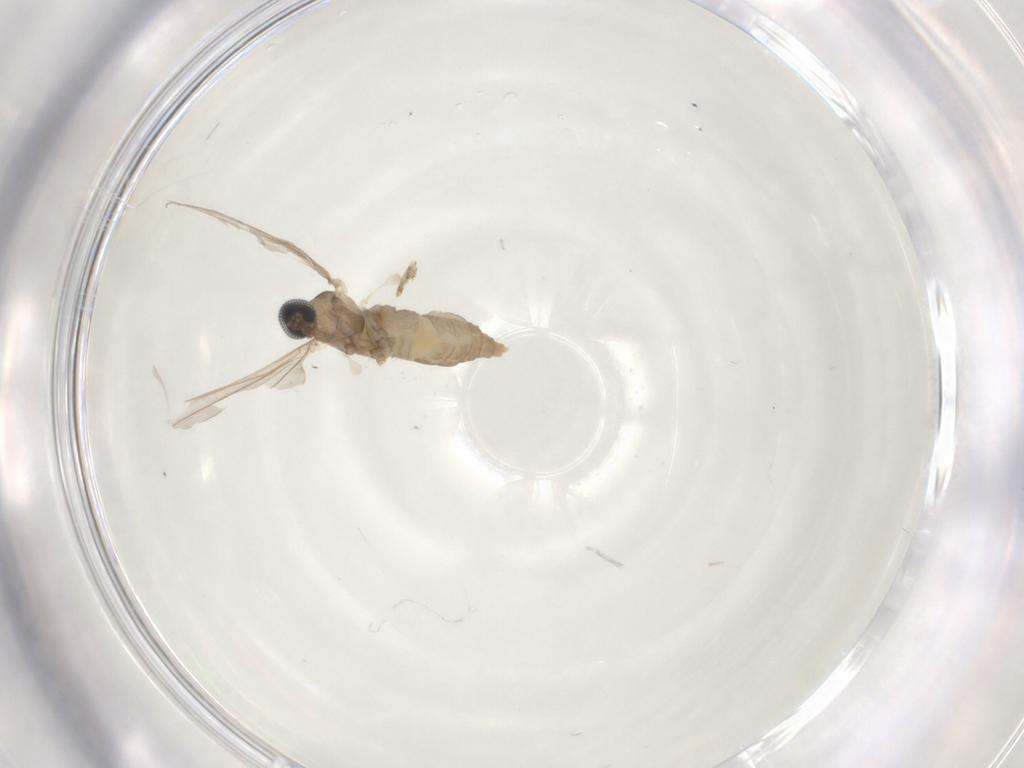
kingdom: Animalia
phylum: Arthropoda
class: Insecta
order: Diptera
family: Cecidomyiidae
